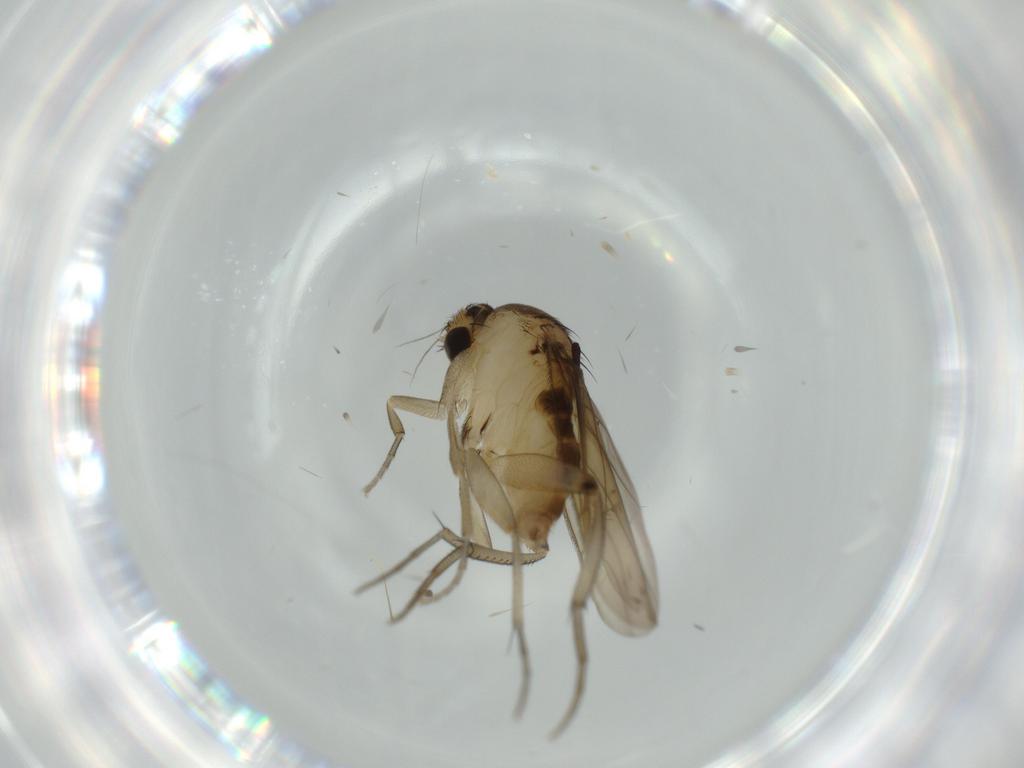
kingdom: Animalia
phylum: Arthropoda
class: Insecta
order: Diptera
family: Phoridae
